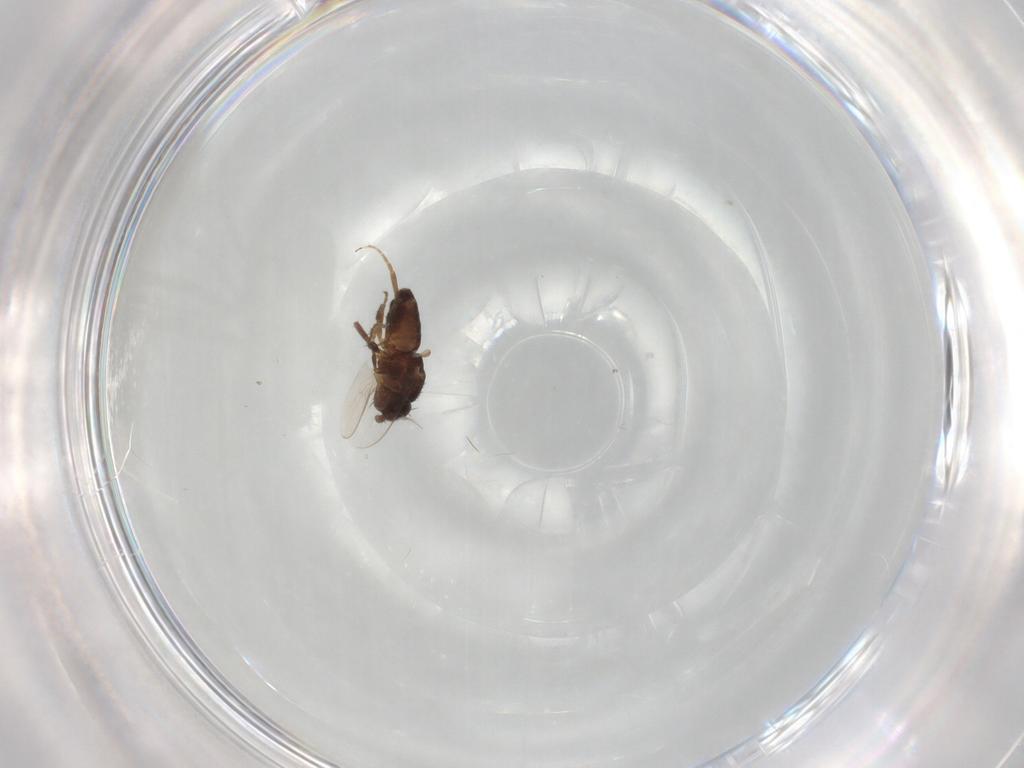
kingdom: Animalia
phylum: Arthropoda
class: Insecta
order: Diptera
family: Sphaeroceridae
